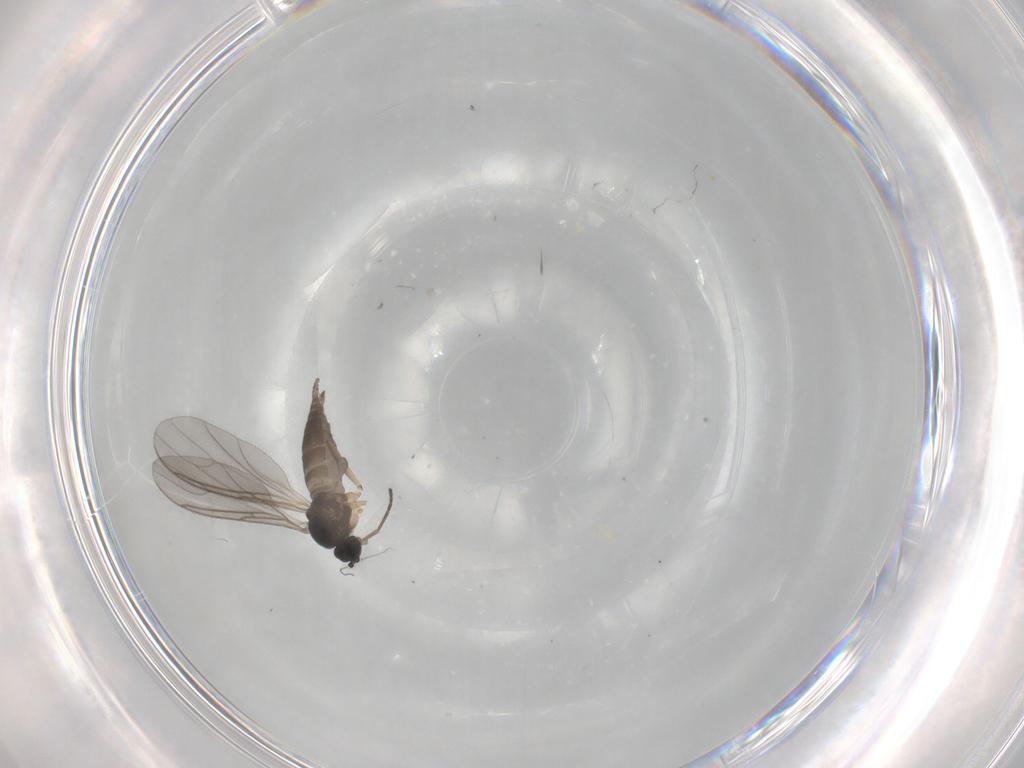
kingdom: Animalia
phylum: Arthropoda
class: Insecta
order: Diptera
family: Sciaridae
